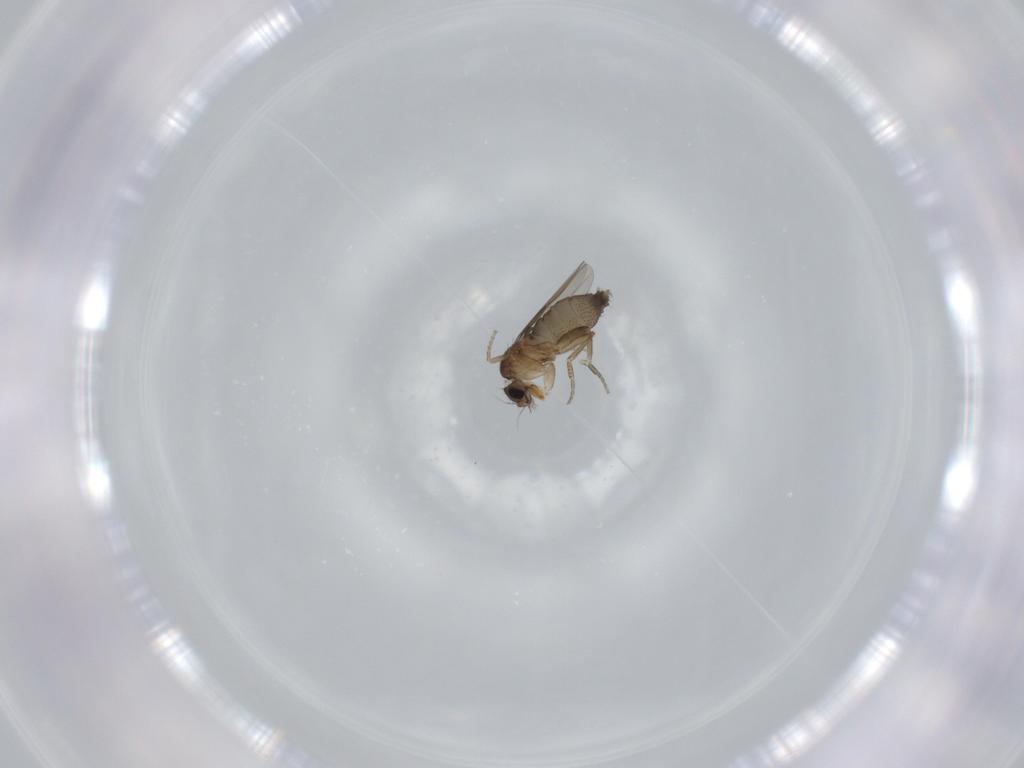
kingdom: Animalia
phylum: Arthropoda
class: Insecta
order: Diptera
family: Phoridae
